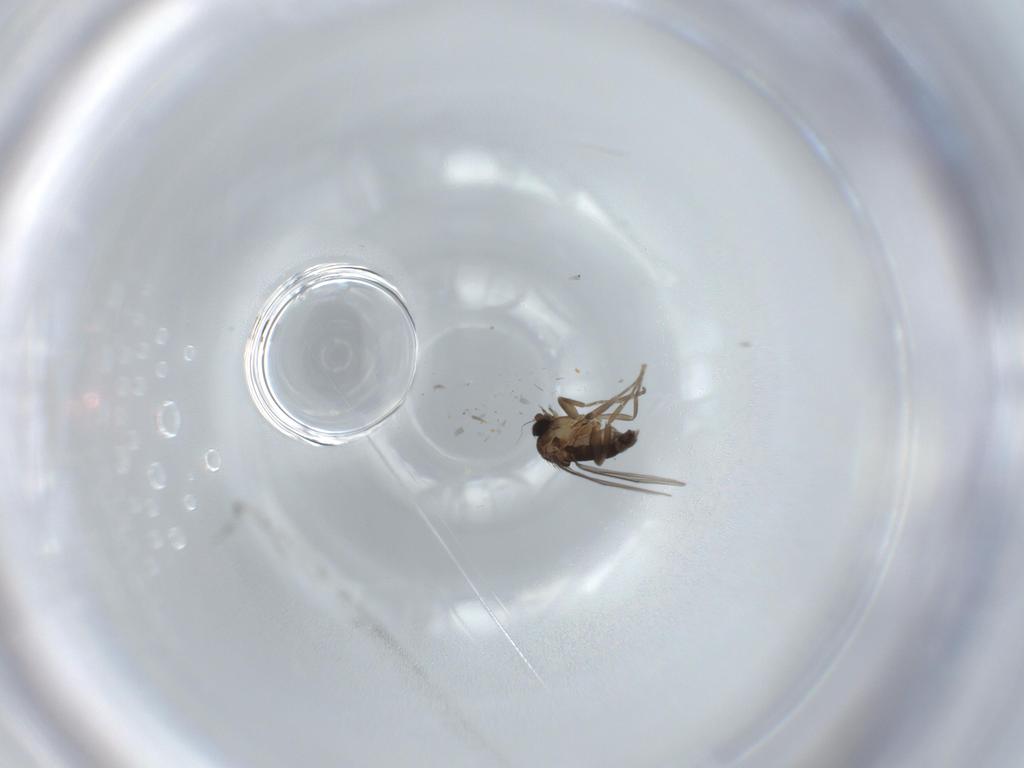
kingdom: Animalia
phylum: Arthropoda
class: Insecta
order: Diptera
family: Phoridae
